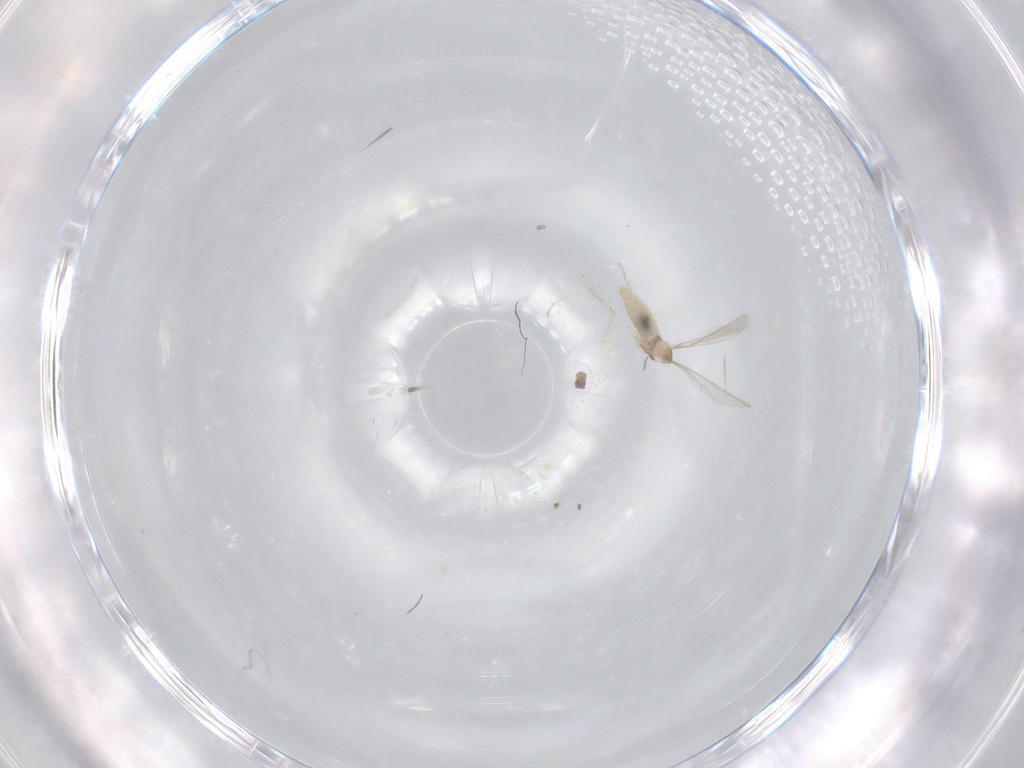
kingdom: Animalia
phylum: Arthropoda
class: Insecta
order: Diptera
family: Cecidomyiidae
